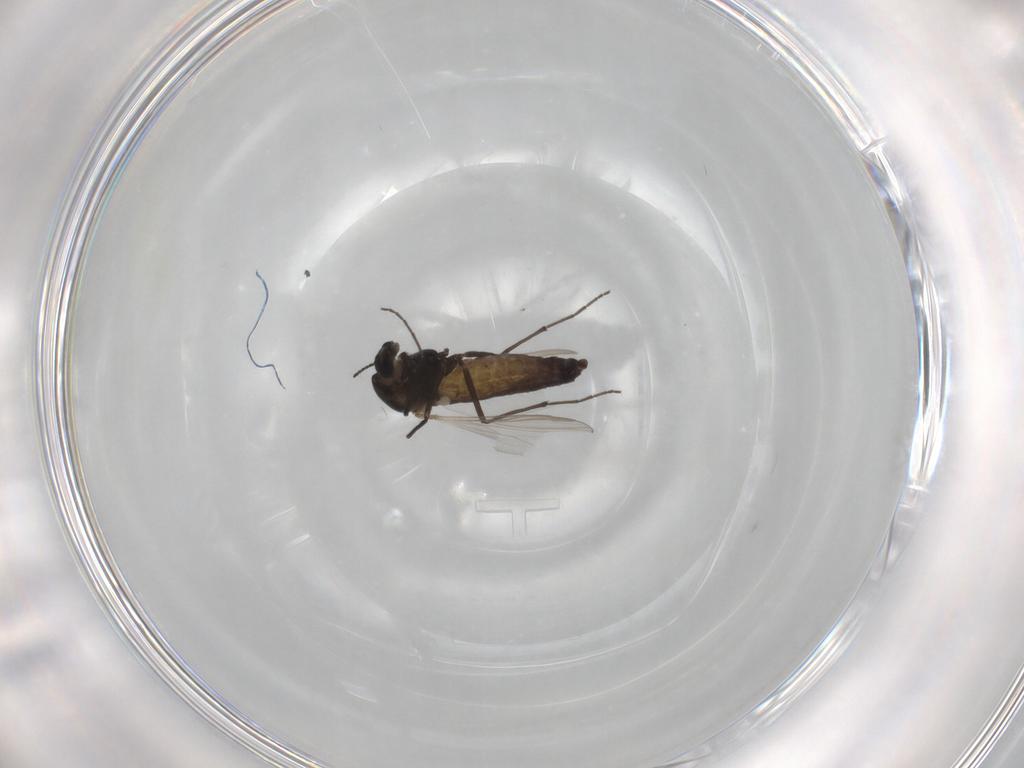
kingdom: Animalia
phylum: Arthropoda
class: Insecta
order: Diptera
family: Chironomidae
